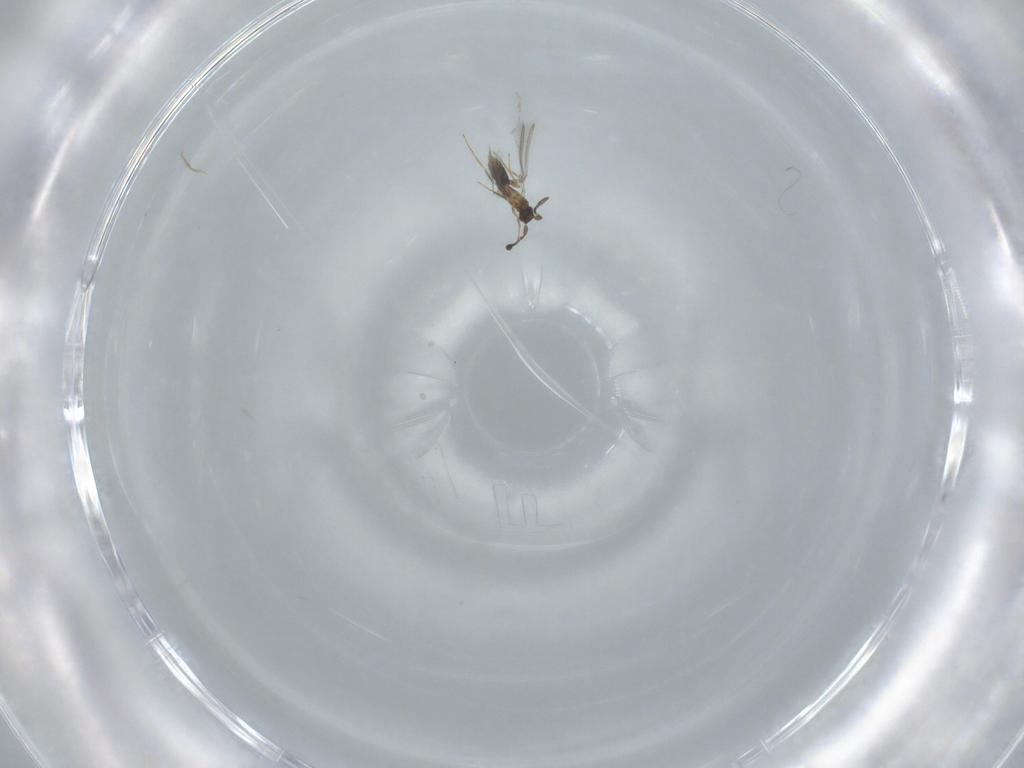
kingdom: Animalia
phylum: Arthropoda
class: Insecta
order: Hymenoptera
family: Mymaridae
